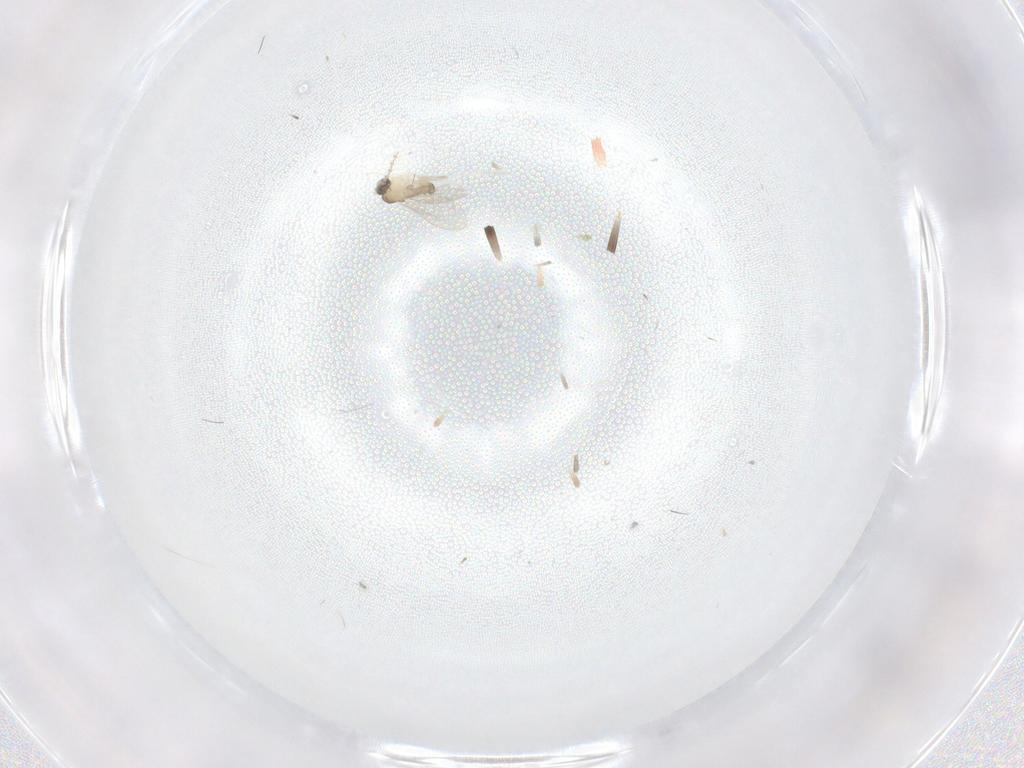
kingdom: Animalia
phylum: Arthropoda
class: Insecta
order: Diptera
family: Cecidomyiidae
